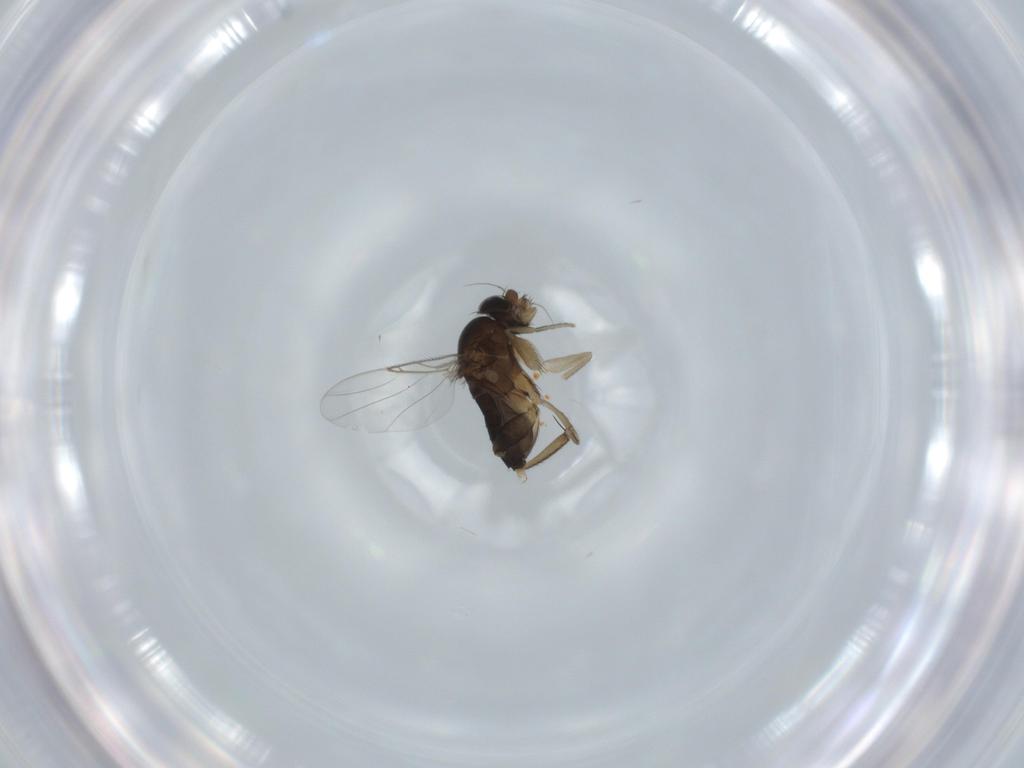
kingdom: Animalia
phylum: Arthropoda
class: Insecta
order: Diptera
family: Phoridae
